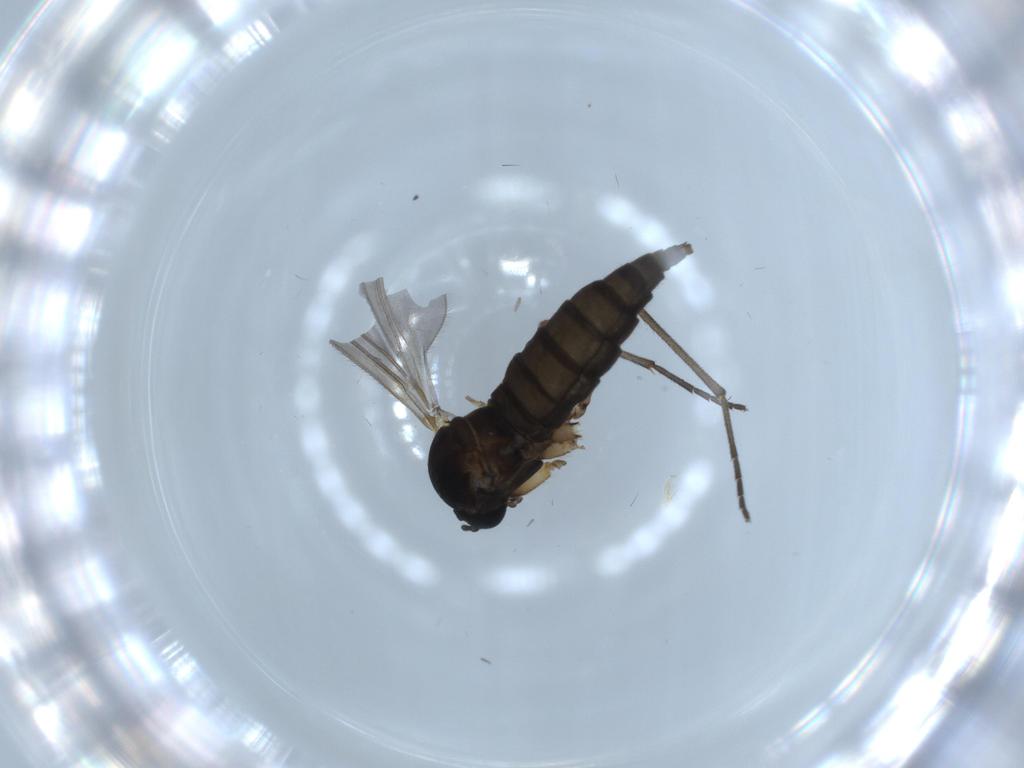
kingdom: Animalia
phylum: Arthropoda
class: Insecta
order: Diptera
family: Sciaridae
